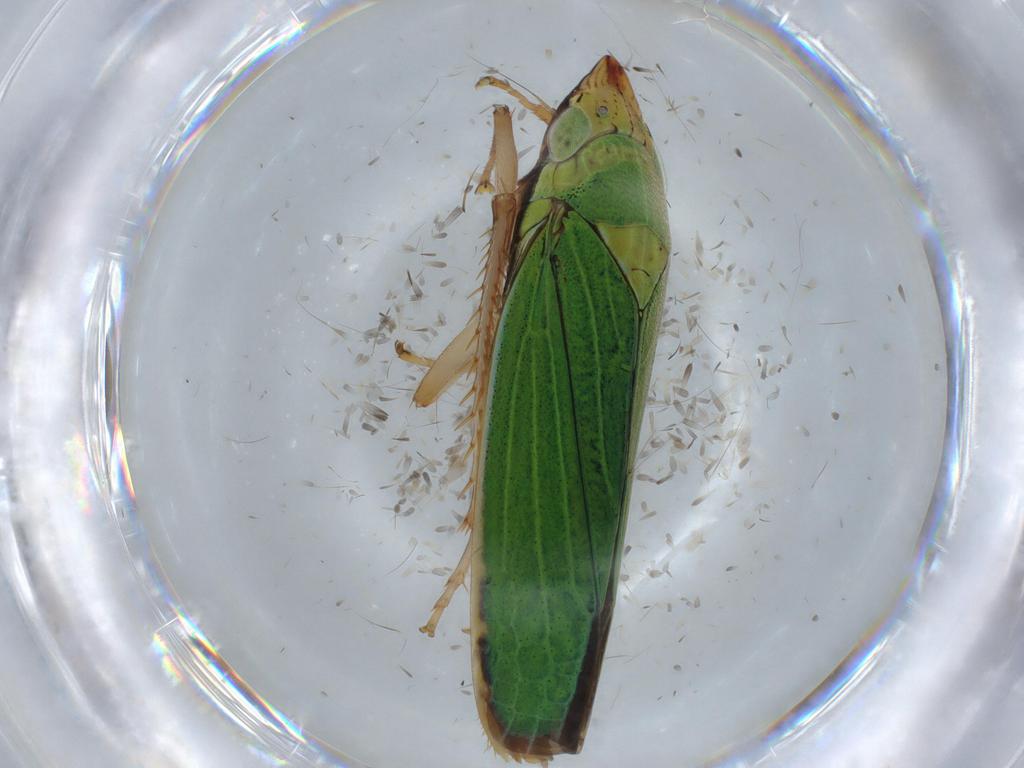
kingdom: Animalia
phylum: Arthropoda
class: Insecta
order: Hemiptera
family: Cicadellidae
